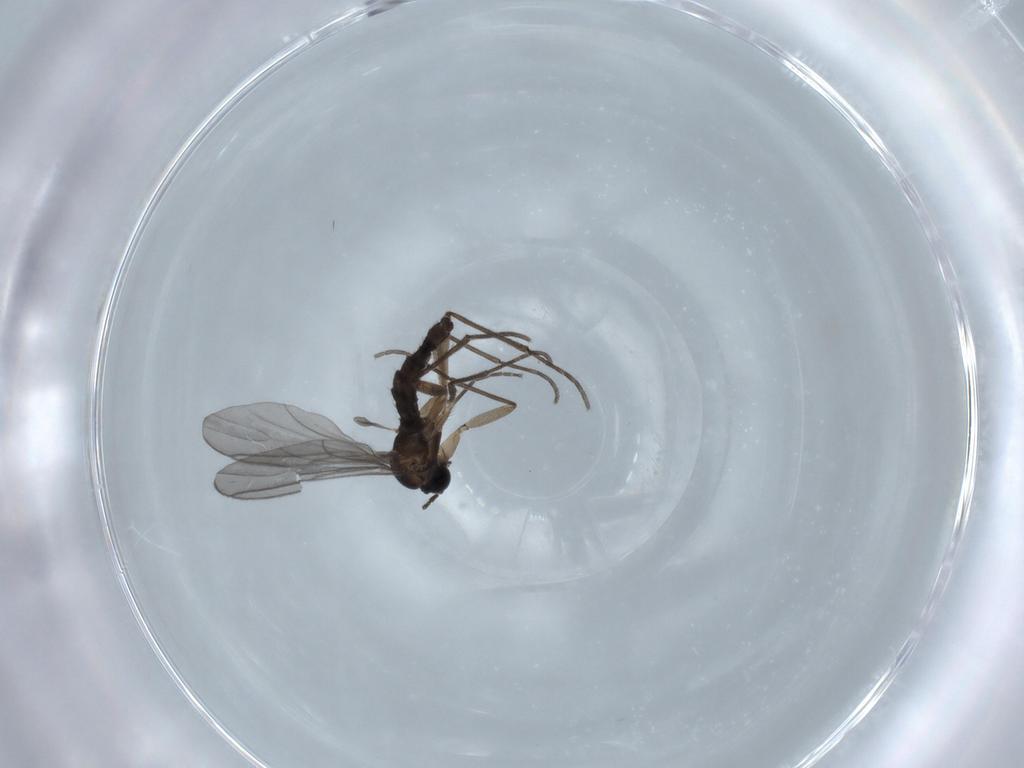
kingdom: Animalia
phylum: Arthropoda
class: Insecta
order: Diptera
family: Sciaridae
